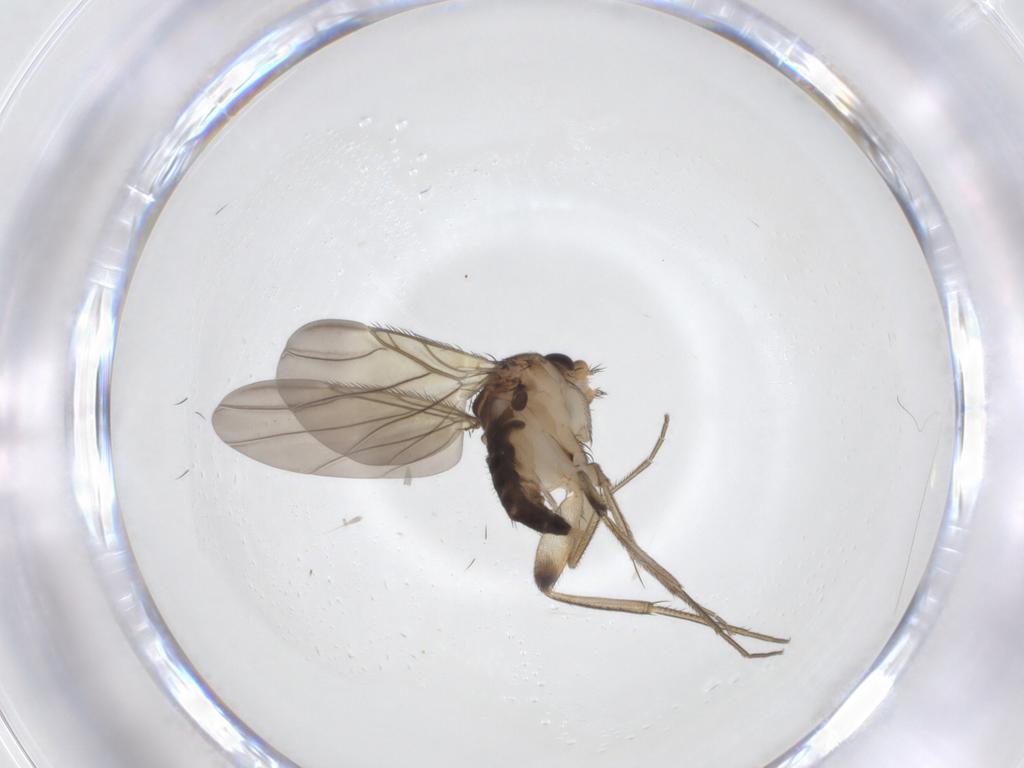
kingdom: Animalia
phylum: Arthropoda
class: Insecta
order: Diptera
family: Phoridae
